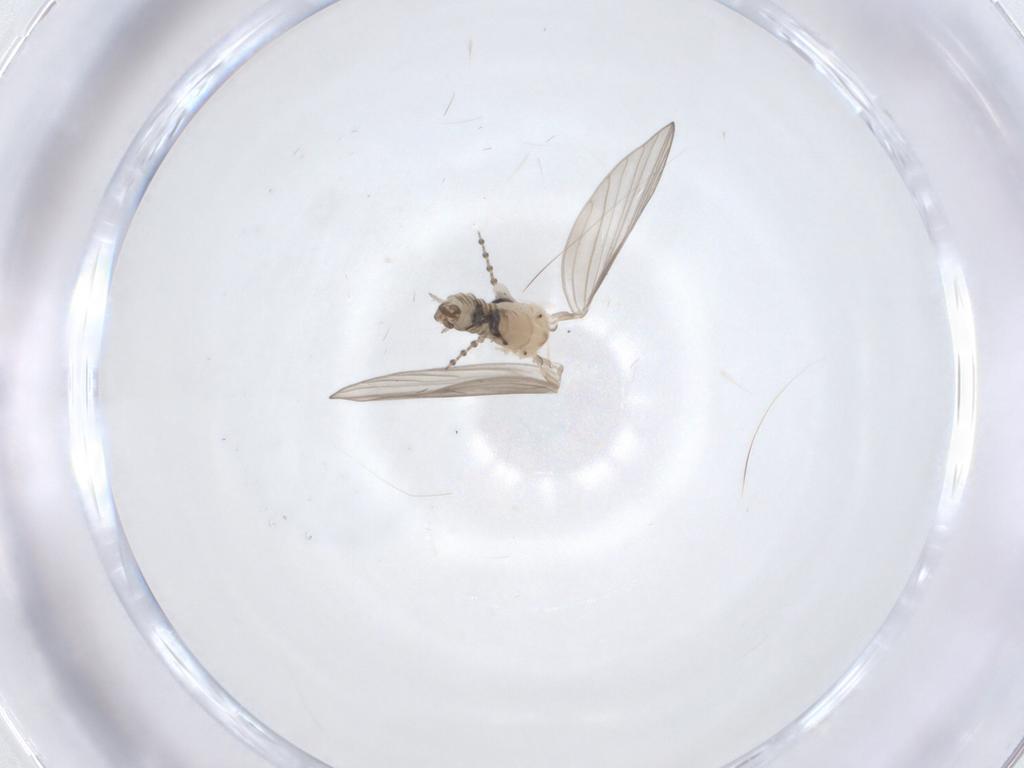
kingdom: Animalia
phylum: Arthropoda
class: Insecta
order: Diptera
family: Psychodidae
